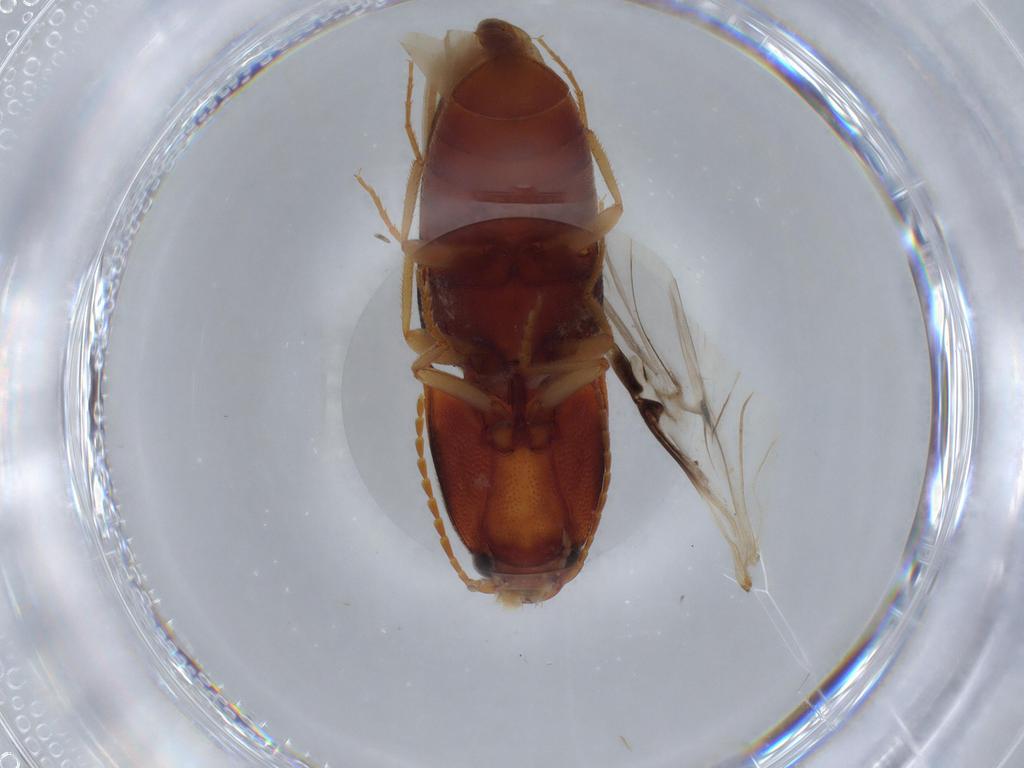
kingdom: Animalia
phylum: Arthropoda
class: Insecta
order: Coleoptera
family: Elateridae
